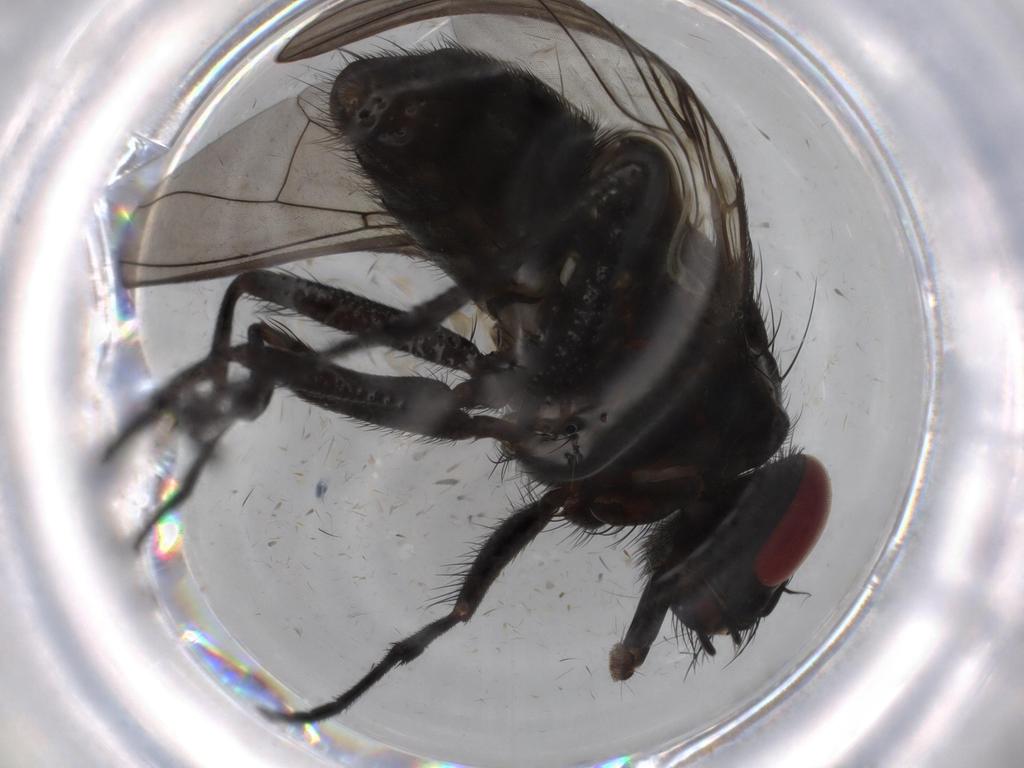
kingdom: Animalia
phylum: Arthropoda
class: Insecta
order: Diptera
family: Muscidae
